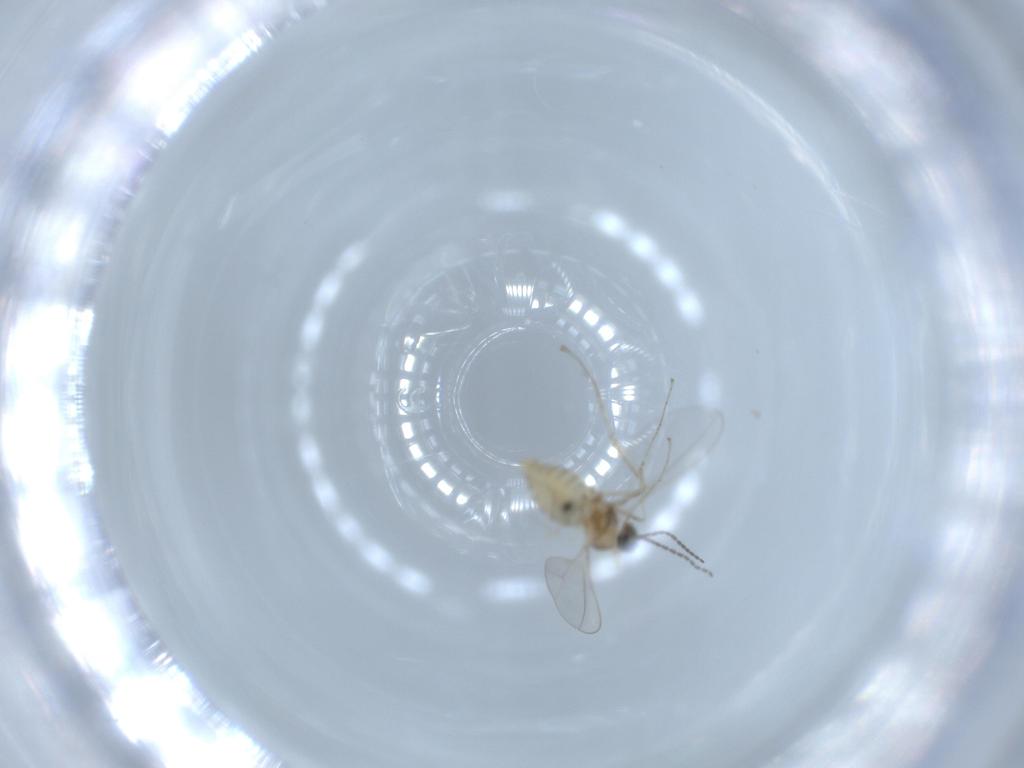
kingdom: Animalia
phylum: Arthropoda
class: Insecta
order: Diptera
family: Cecidomyiidae
